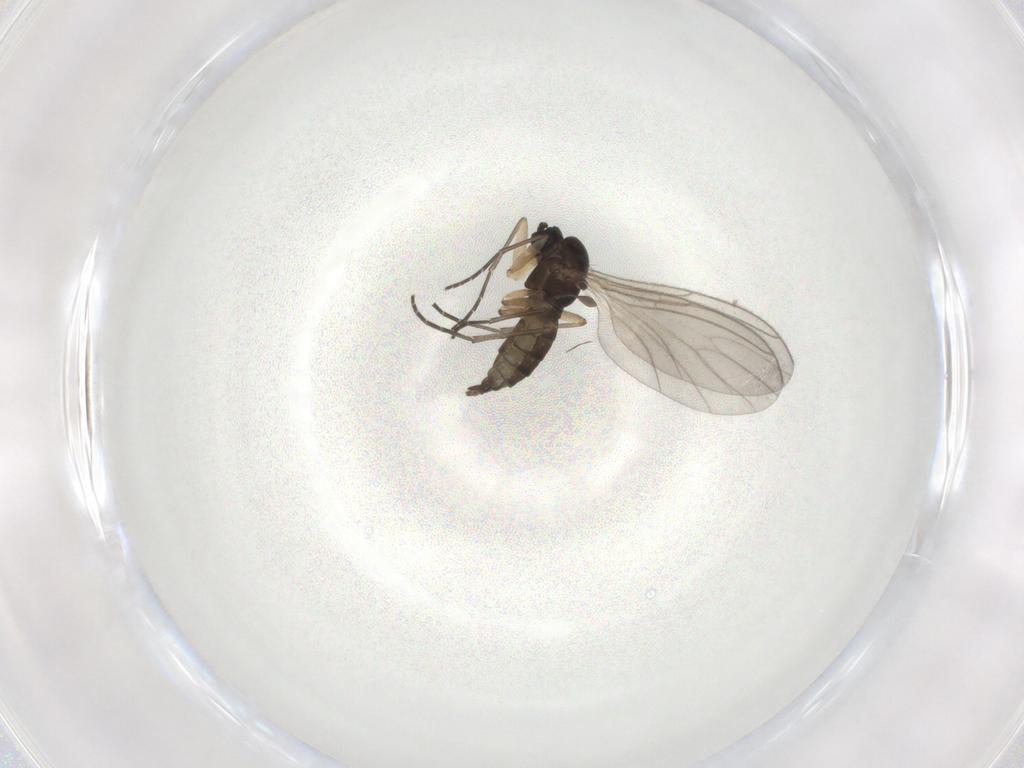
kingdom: Animalia
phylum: Arthropoda
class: Insecta
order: Diptera
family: Sciaridae
